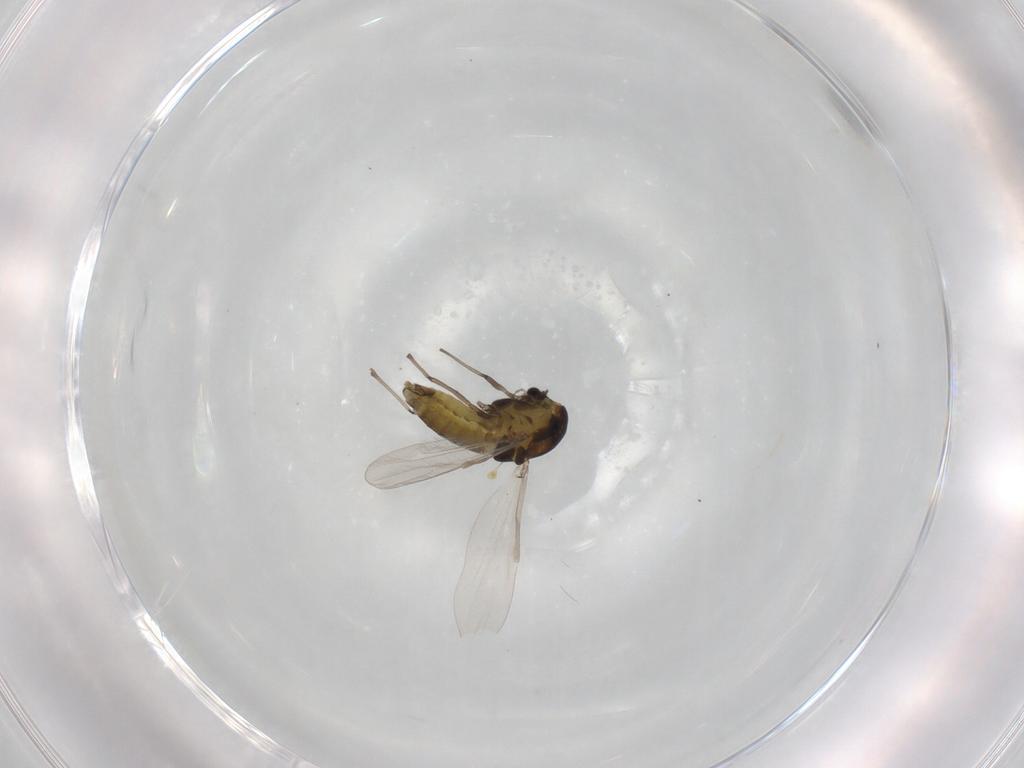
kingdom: Animalia
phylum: Arthropoda
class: Insecta
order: Diptera
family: Chironomidae
